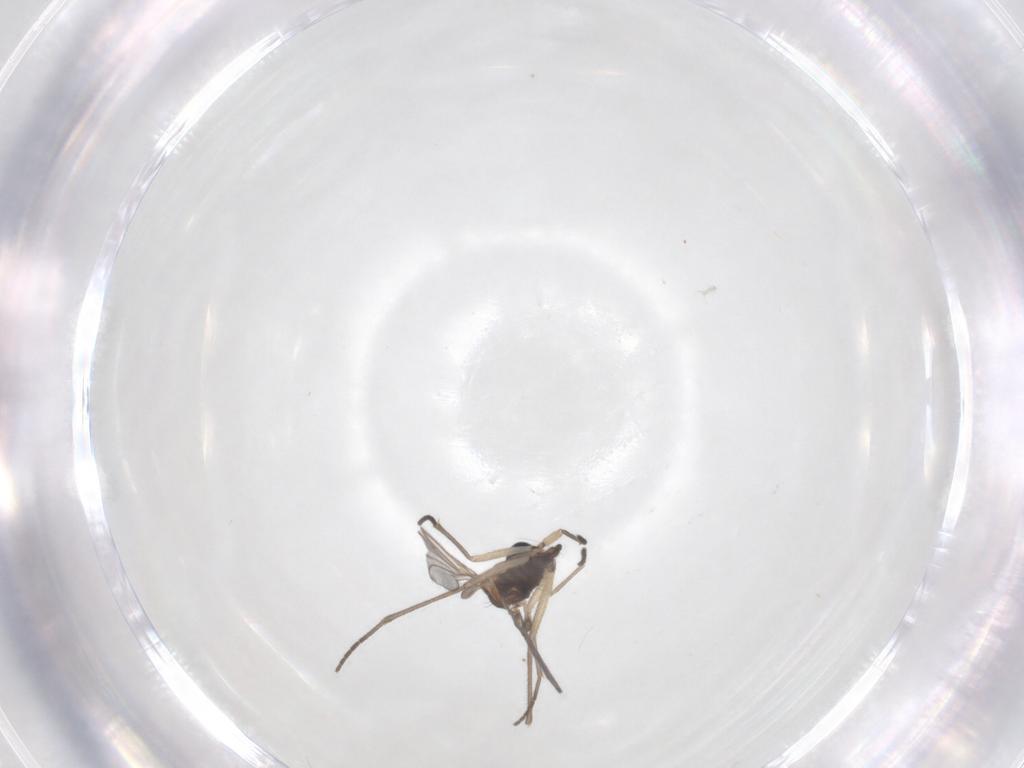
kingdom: Animalia
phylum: Arthropoda
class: Insecta
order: Diptera
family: Sciaridae
